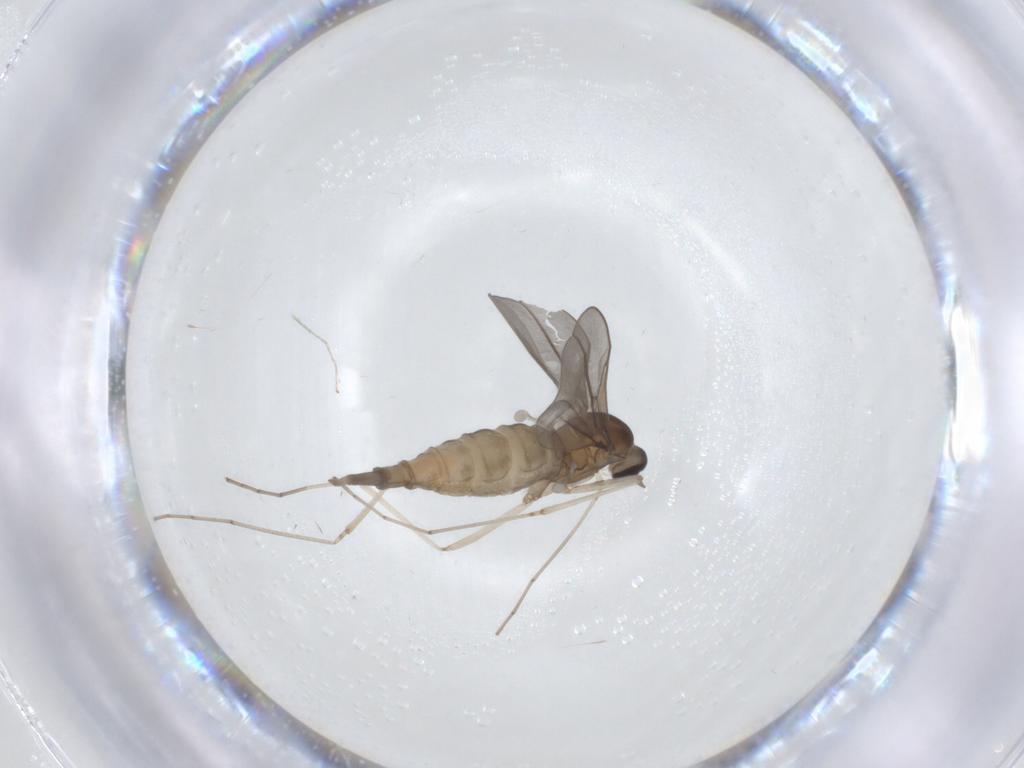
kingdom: Animalia
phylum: Arthropoda
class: Insecta
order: Diptera
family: Cecidomyiidae
